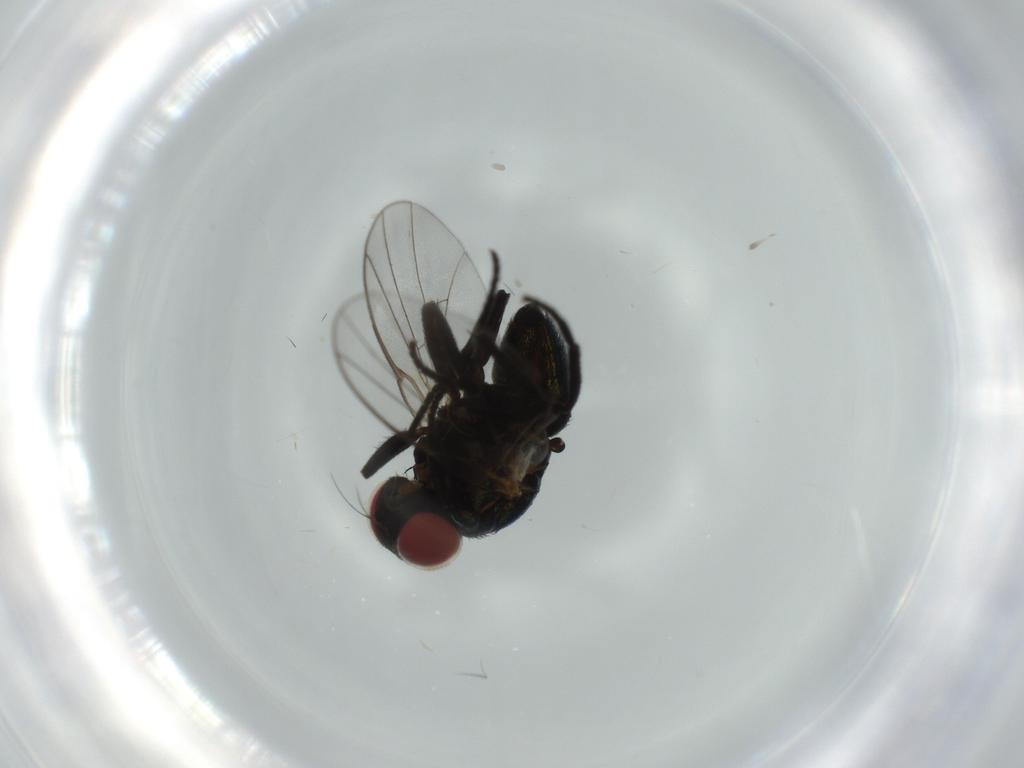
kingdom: Animalia
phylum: Arthropoda
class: Insecta
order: Diptera
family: Agromyzidae
